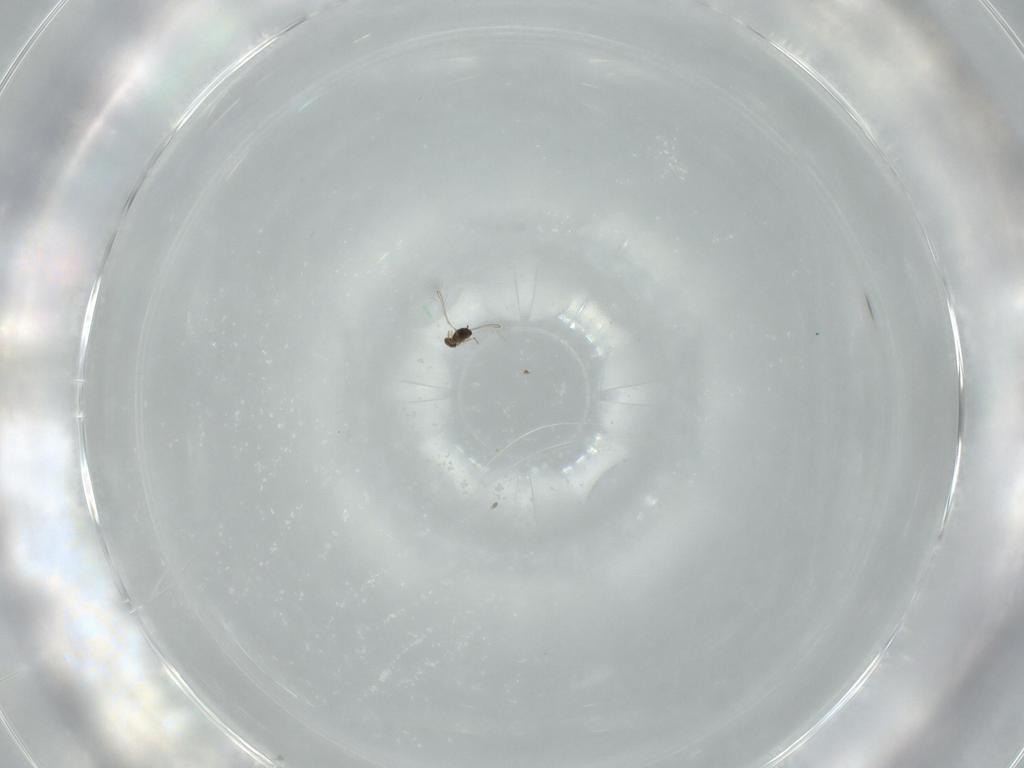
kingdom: Animalia
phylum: Arthropoda
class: Insecta
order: Hymenoptera
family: Mymaridae
